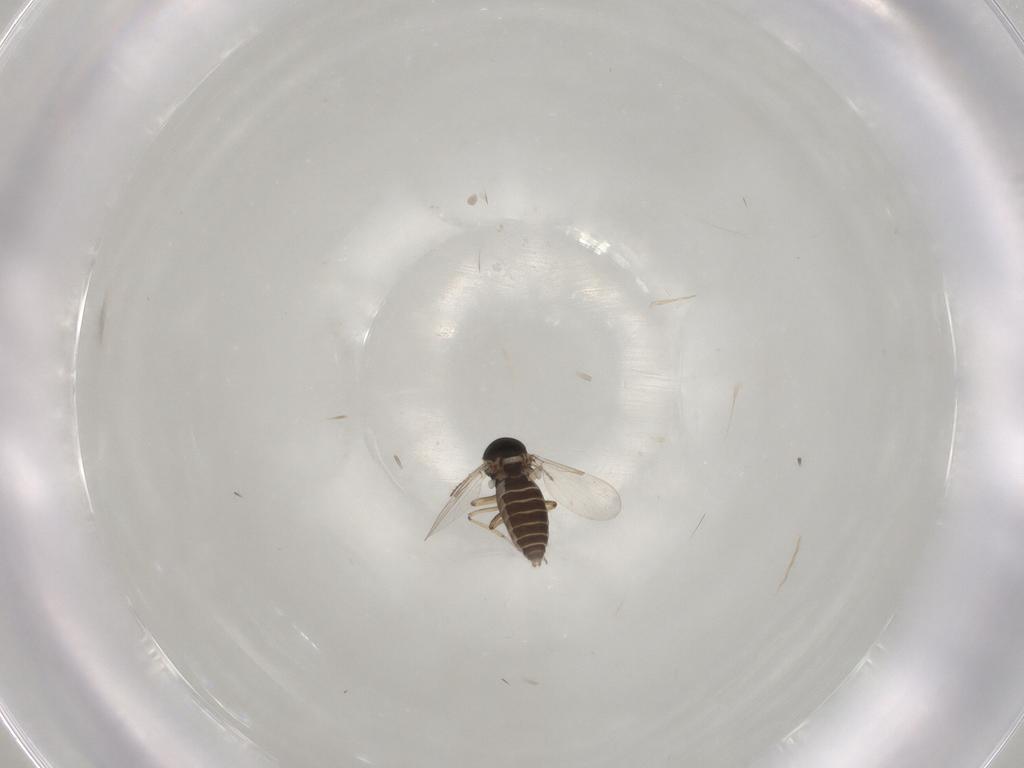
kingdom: Animalia
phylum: Arthropoda
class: Insecta
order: Diptera
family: Ceratopogonidae
